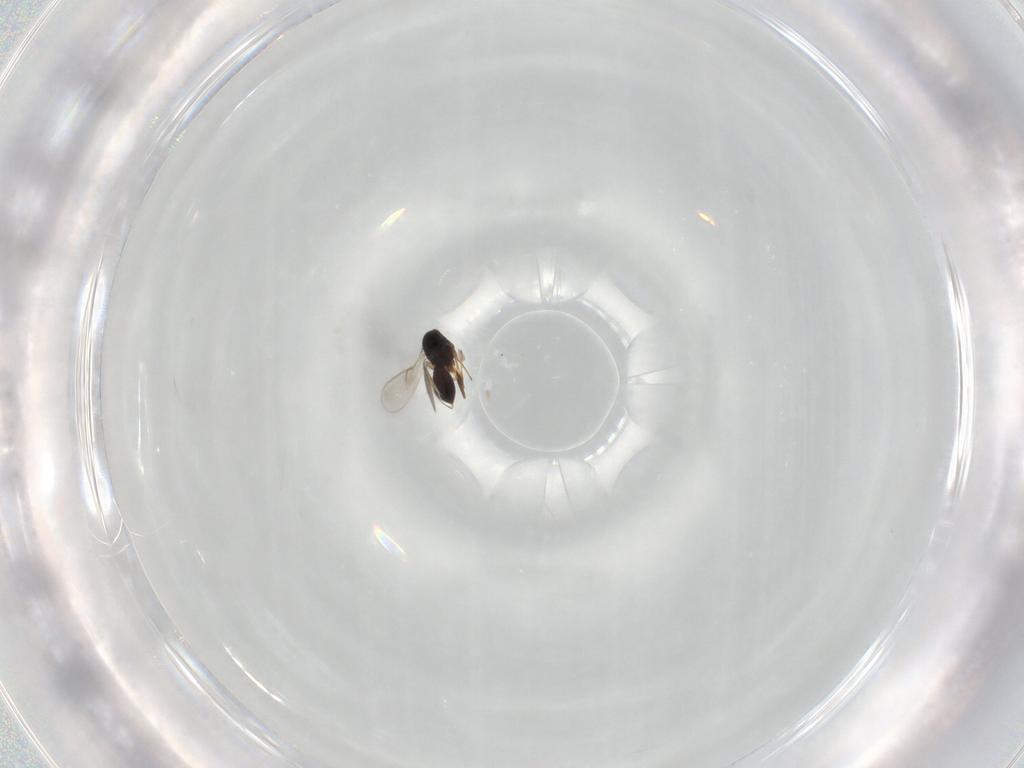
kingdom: Animalia
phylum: Arthropoda
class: Insecta
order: Hymenoptera
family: Scelionidae
